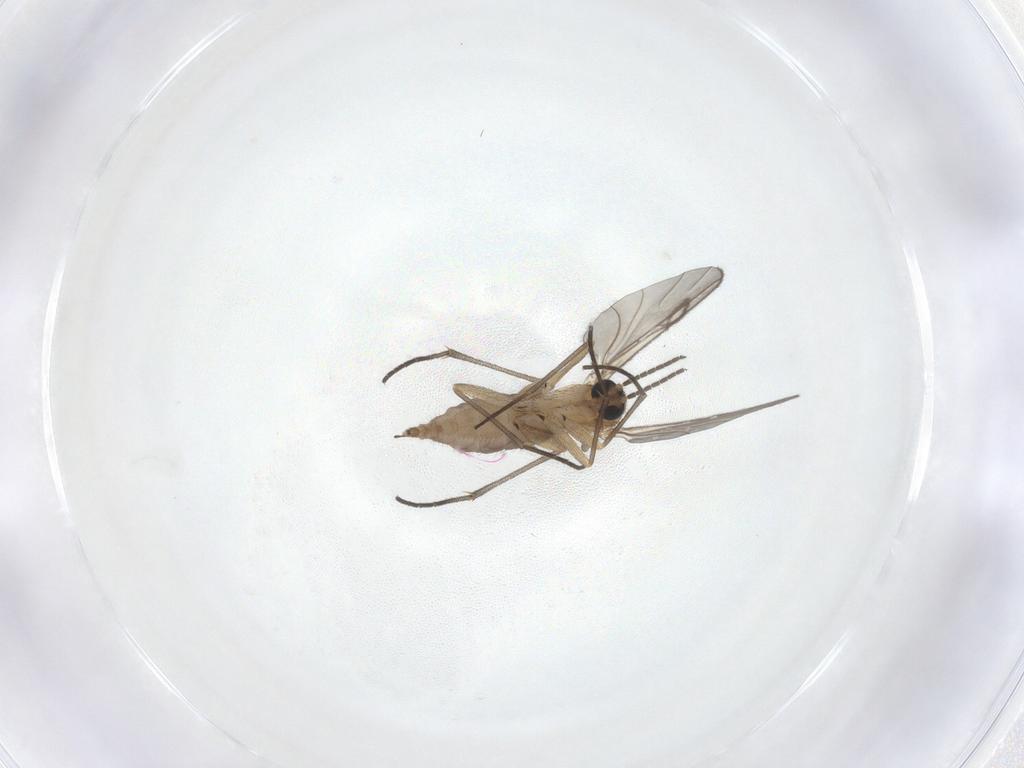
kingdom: Animalia
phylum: Arthropoda
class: Insecta
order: Diptera
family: Sciaridae
